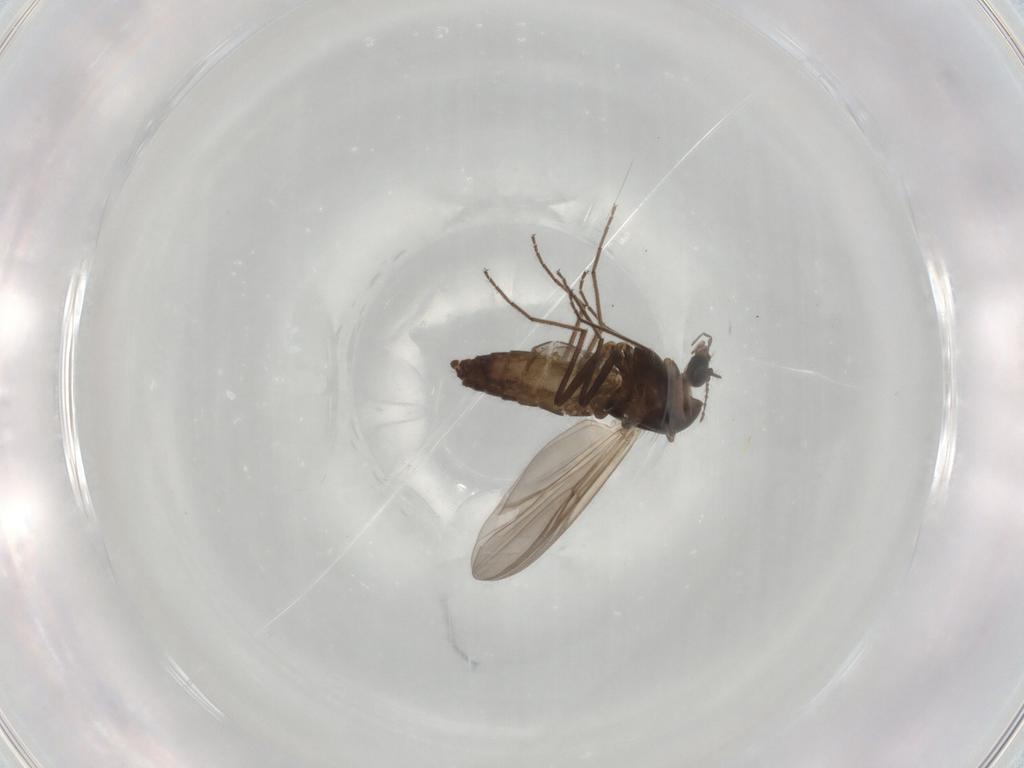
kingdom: Animalia
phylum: Arthropoda
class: Insecta
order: Diptera
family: Chironomidae
